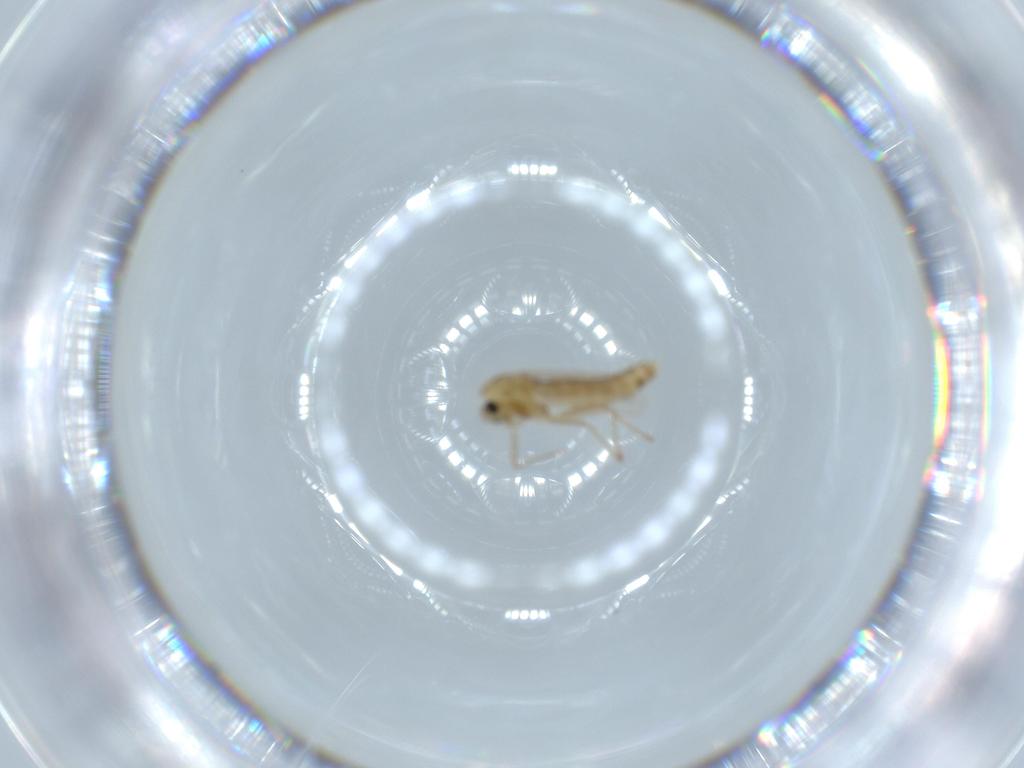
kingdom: Animalia
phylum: Arthropoda
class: Insecta
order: Diptera
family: Chironomidae
